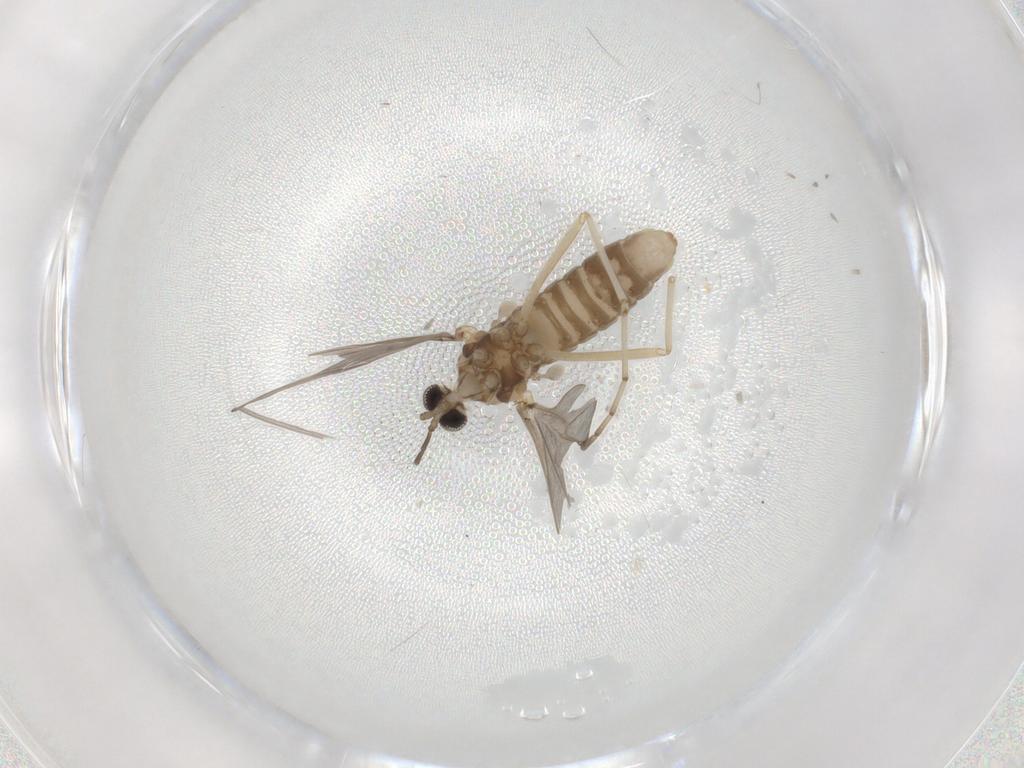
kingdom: Animalia
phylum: Arthropoda
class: Insecta
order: Diptera
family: Cecidomyiidae
